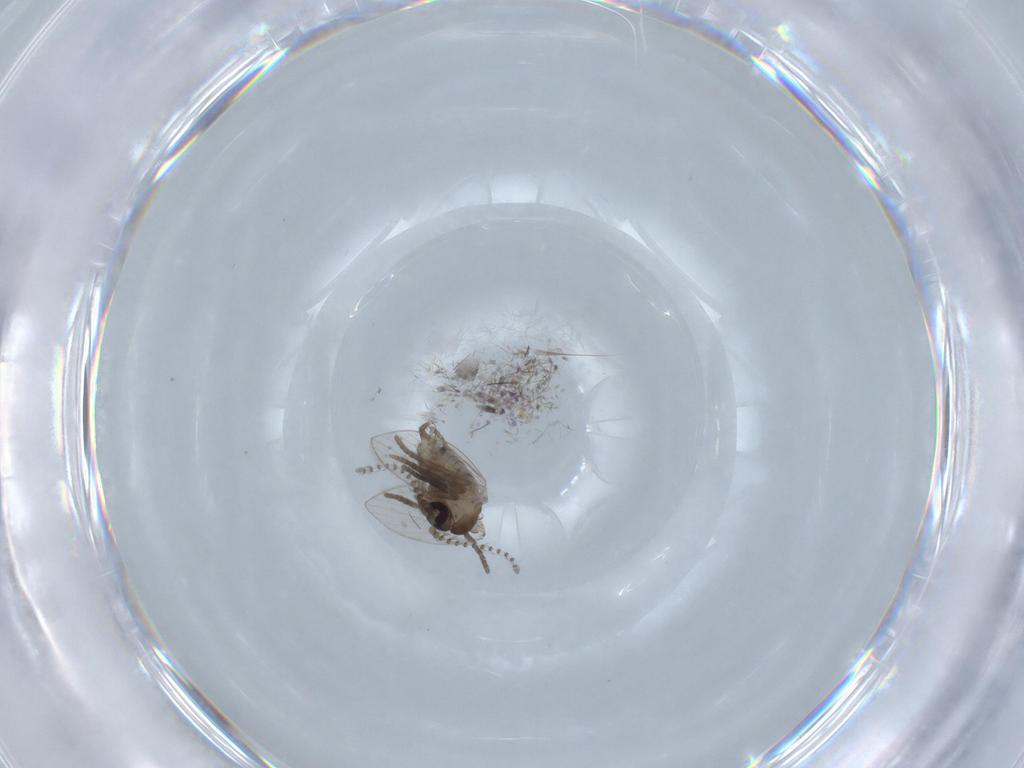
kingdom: Animalia
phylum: Arthropoda
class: Insecta
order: Diptera
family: Psychodidae
